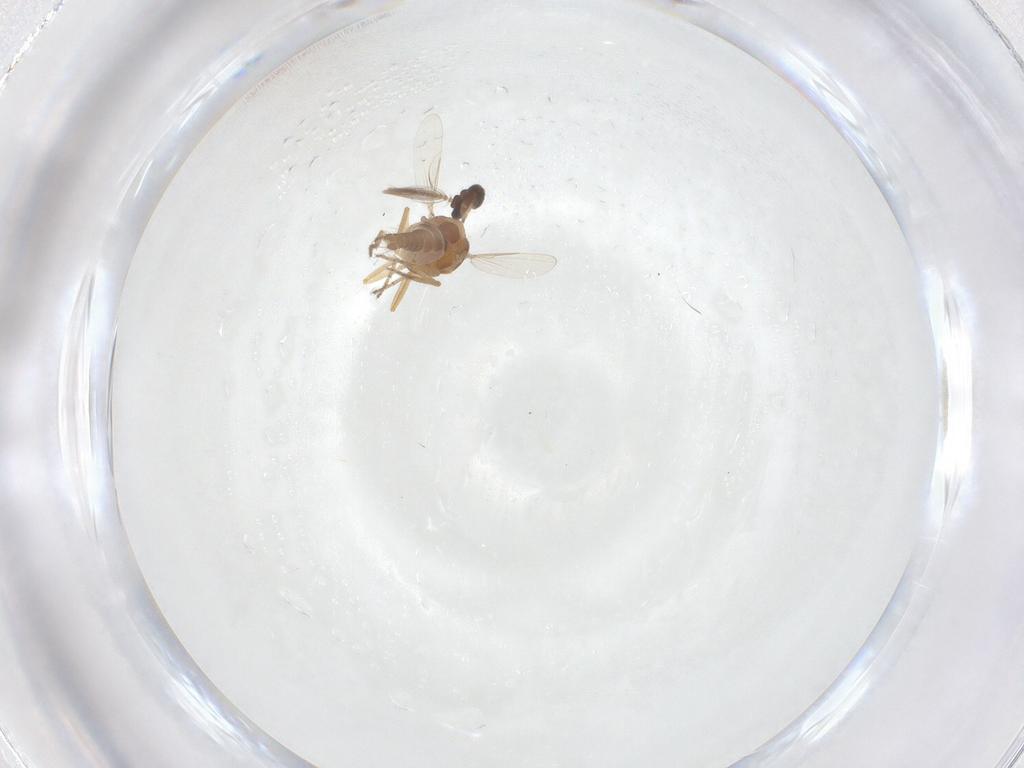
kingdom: Animalia
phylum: Arthropoda
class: Insecta
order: Diptera
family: Ceratopogonidae
